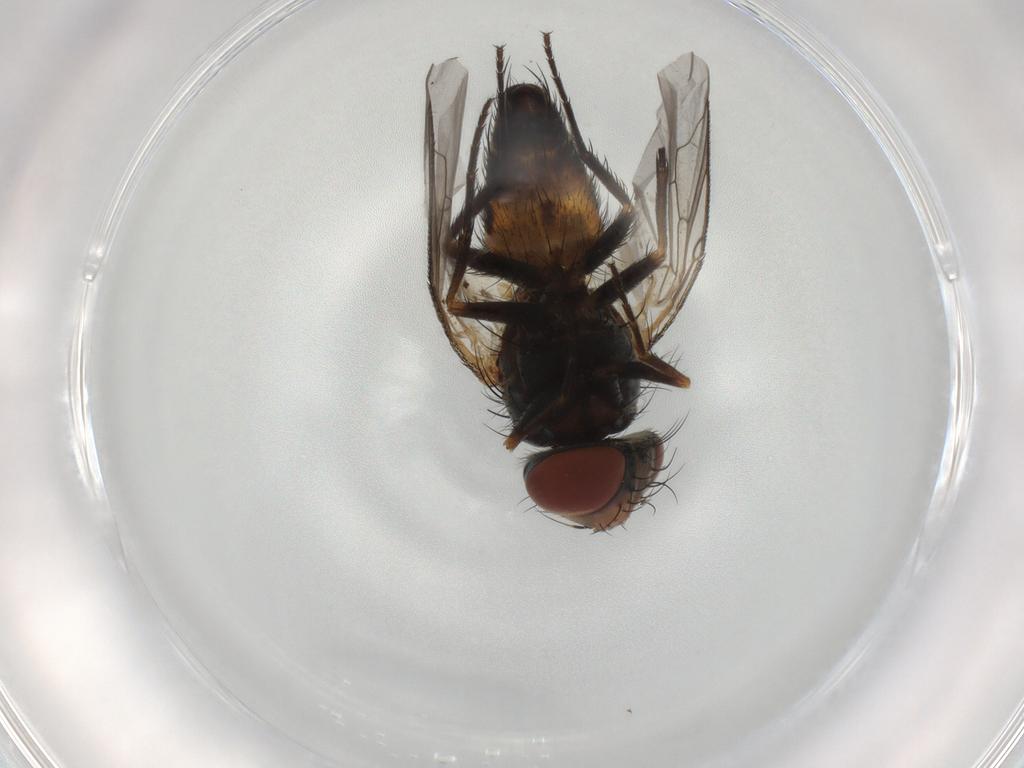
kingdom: Animalia
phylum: Arthropoda
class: Insecta
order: Diptera
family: Sarcophagidae
